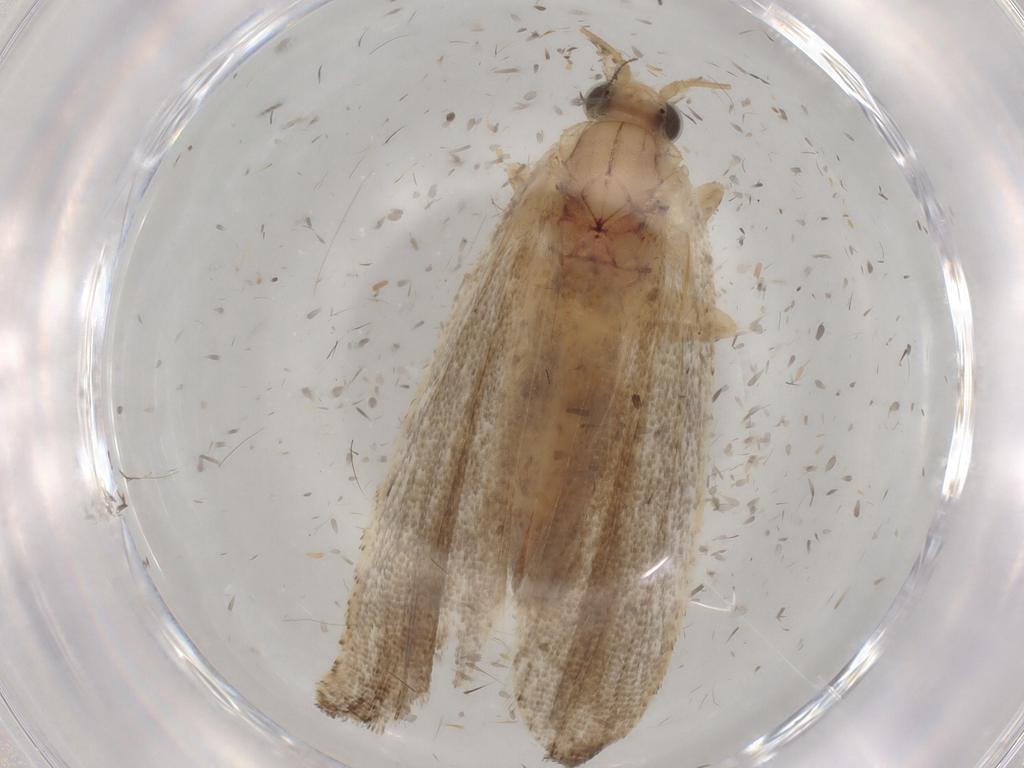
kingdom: Animalia
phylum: Arthropoda
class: Insecta
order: Lepidoptera
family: Tortricidae
